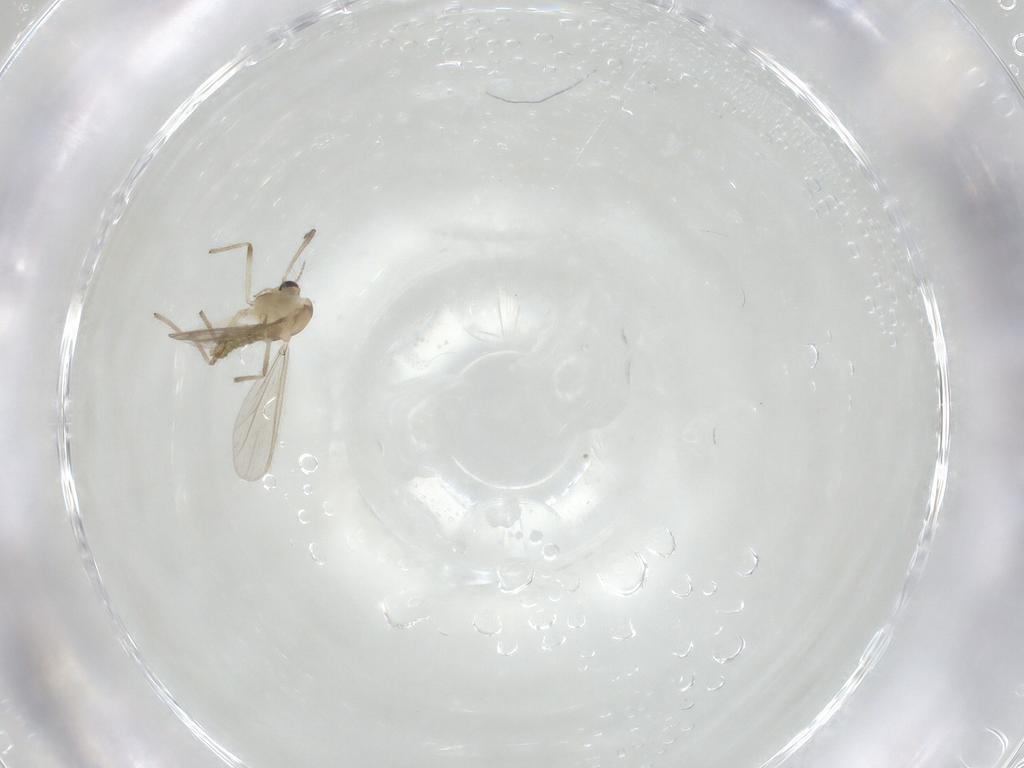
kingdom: Animalia
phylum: Arthropoda
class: Insecta
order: Diptera
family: Chironomidae
